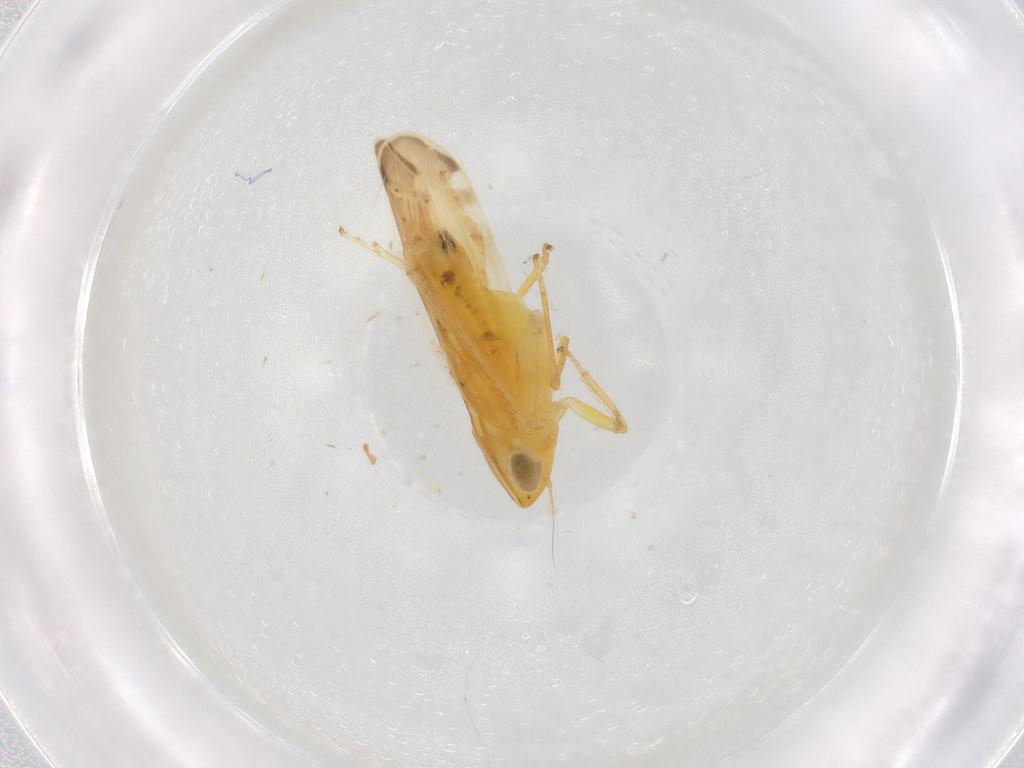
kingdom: Animalia
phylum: Arthropoda
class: Insecta
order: Hemiptera
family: Cicadellidae
